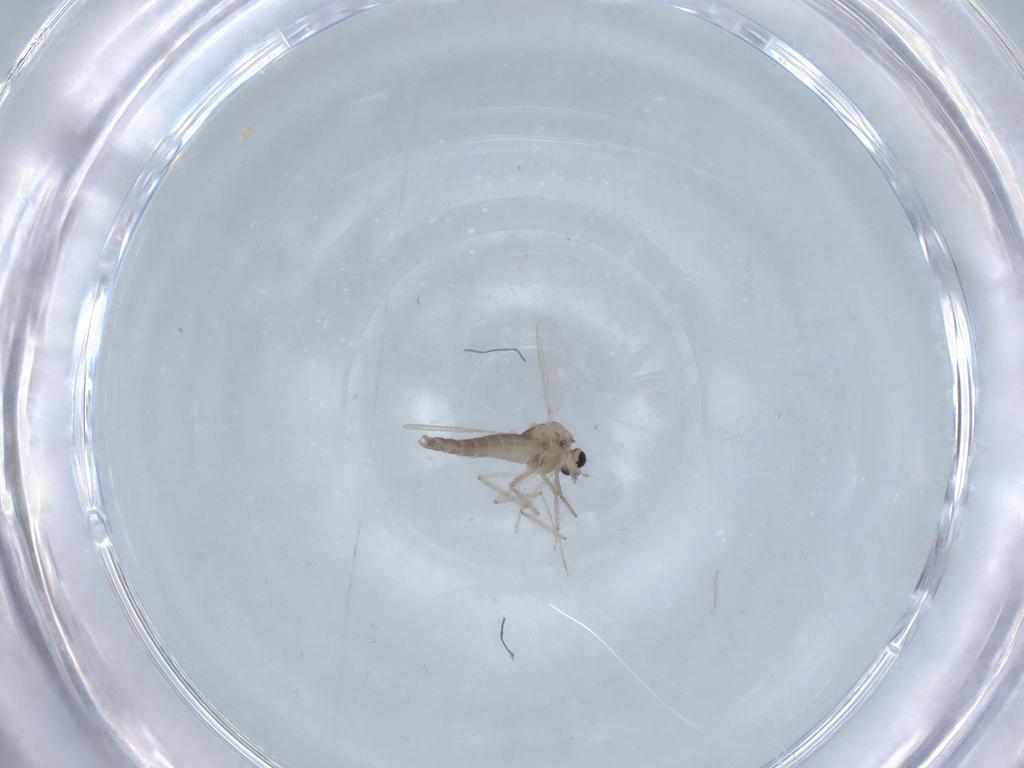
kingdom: Animalia
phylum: Arthropoda
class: Insecta
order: Diptera
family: Chironomidae
